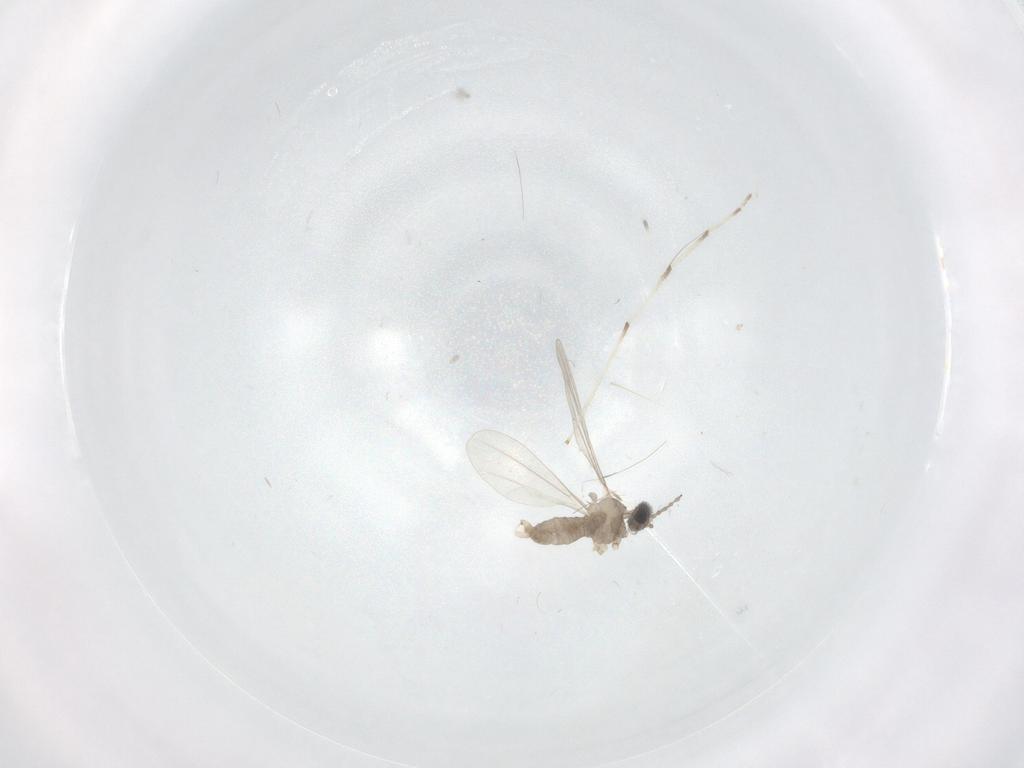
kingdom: Animalia
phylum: Arthropoda
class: Insecta
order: Diptera
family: Cecidomyiidae
